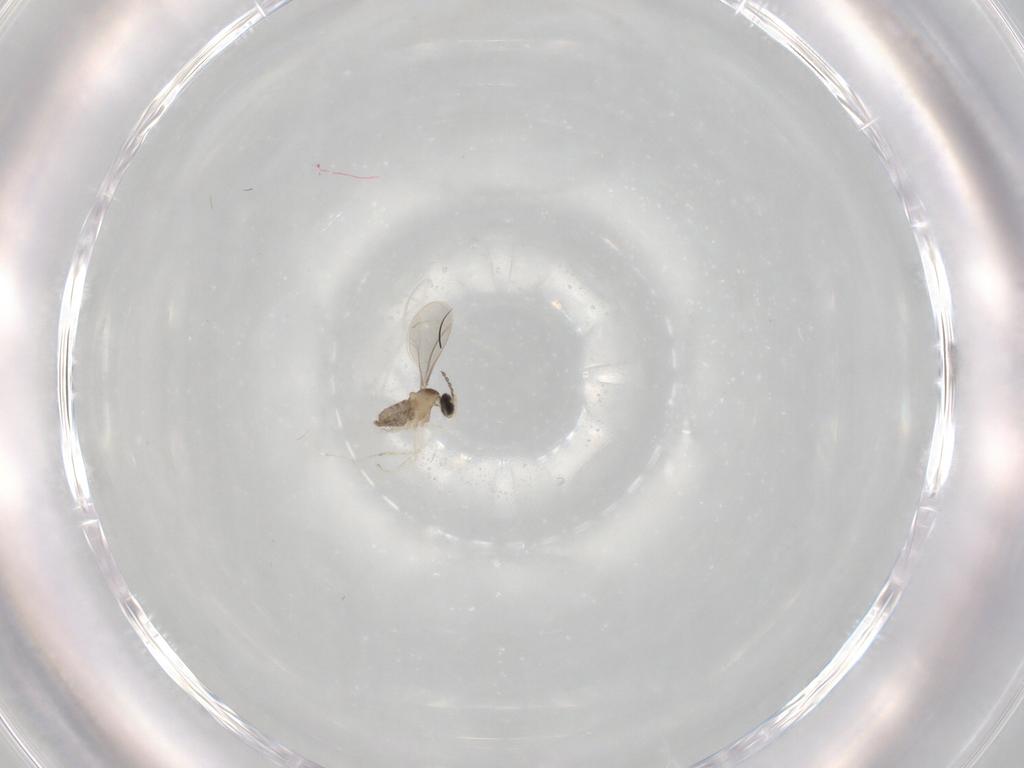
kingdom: Animalia
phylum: Arthropoda
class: Insecta
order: Diptera
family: Cecidomyiidae
